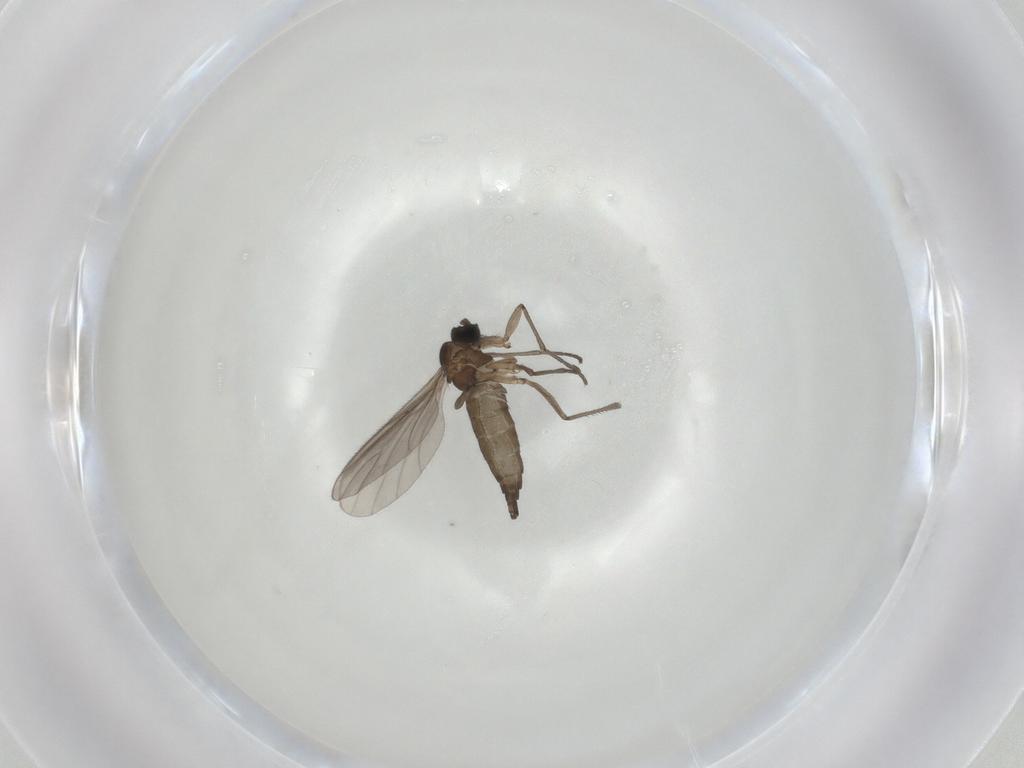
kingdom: Animalia
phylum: Arthropoda
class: Insecta
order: Diptera
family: Sciaridae
